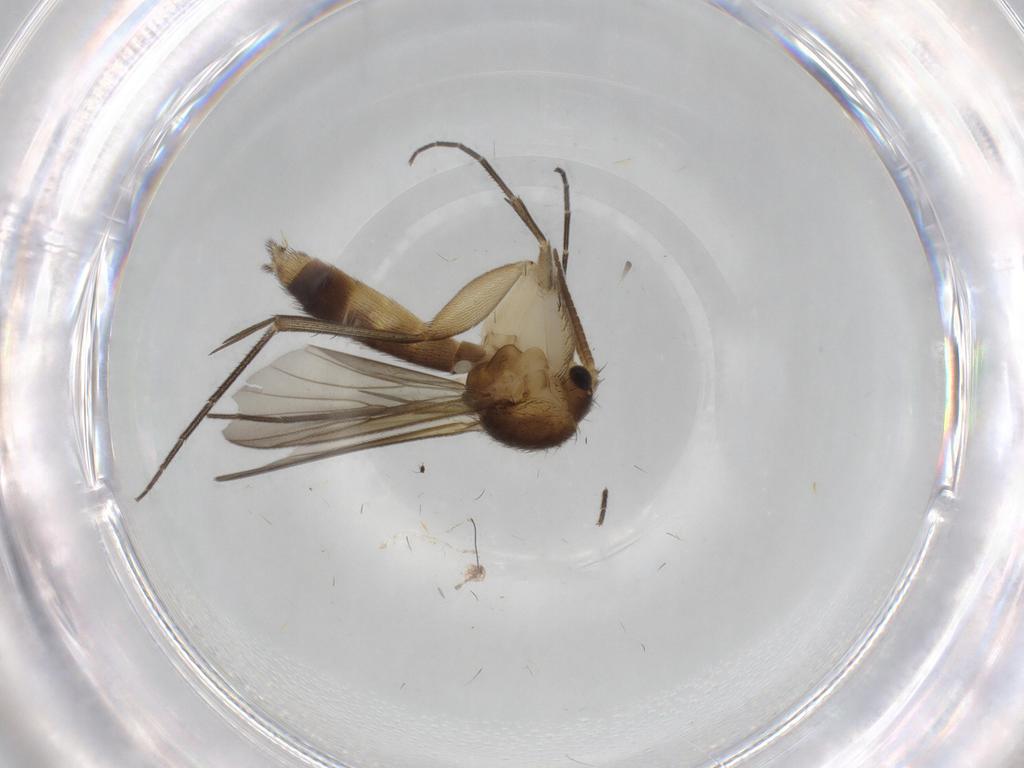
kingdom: Animalia
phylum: Arthropoda
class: Insecta
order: Diptera
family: Mycetophilidae
